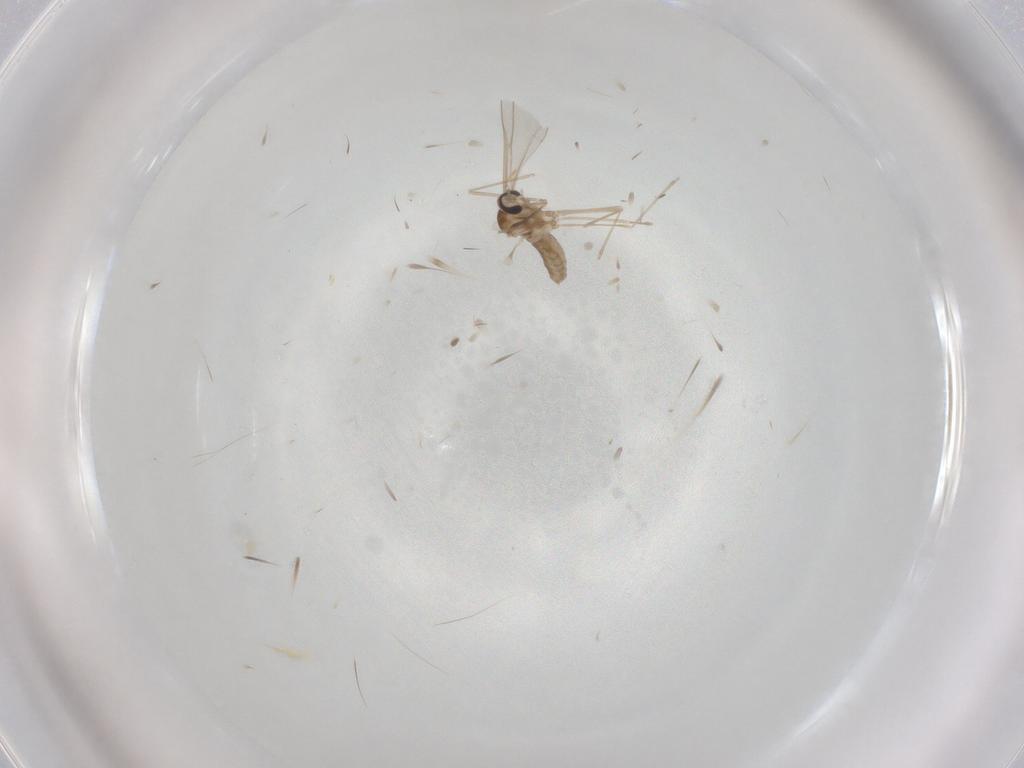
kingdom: Animalia
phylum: Arthropoda
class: Insecta
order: Diptera
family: Cecidomyiidae
